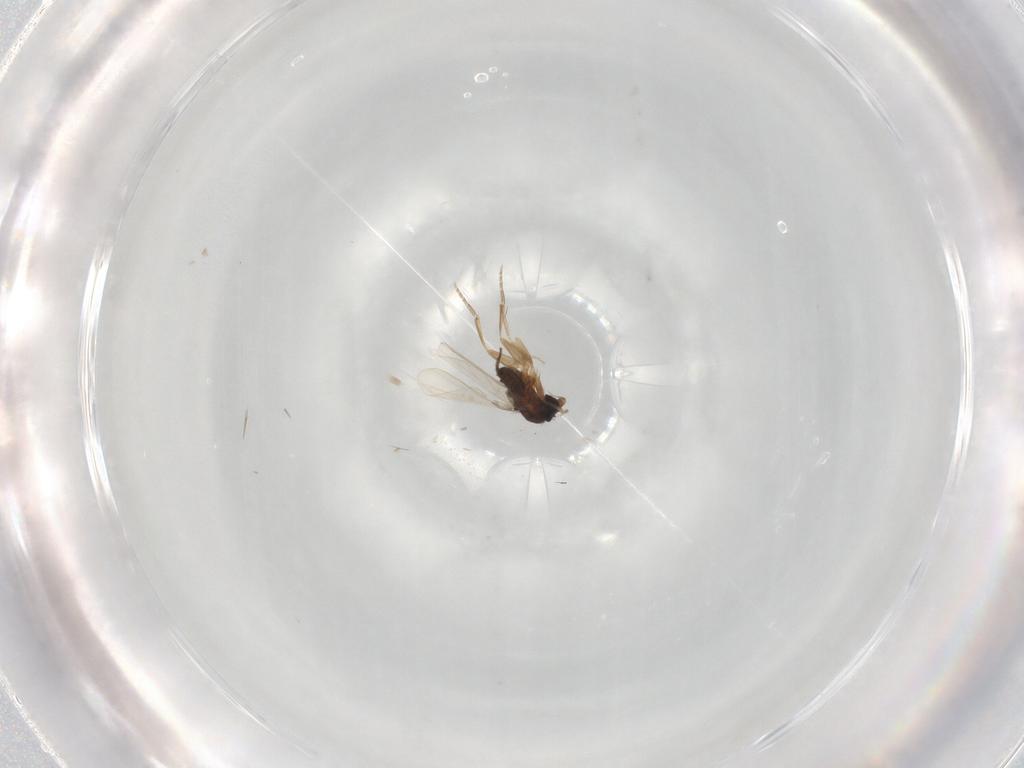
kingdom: Animalia
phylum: Arthropoda
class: Insecta
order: Diptera
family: Phoridae
